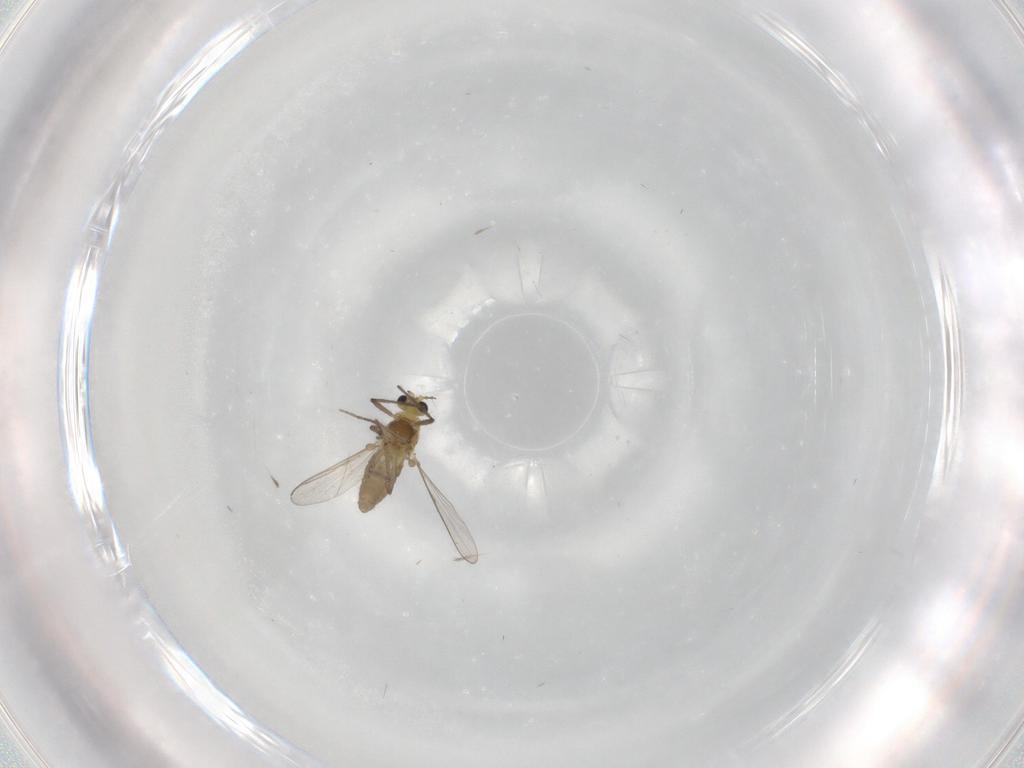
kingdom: Animalia
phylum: Arthropoda
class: Insecta
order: Diptera
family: Chironomidae
